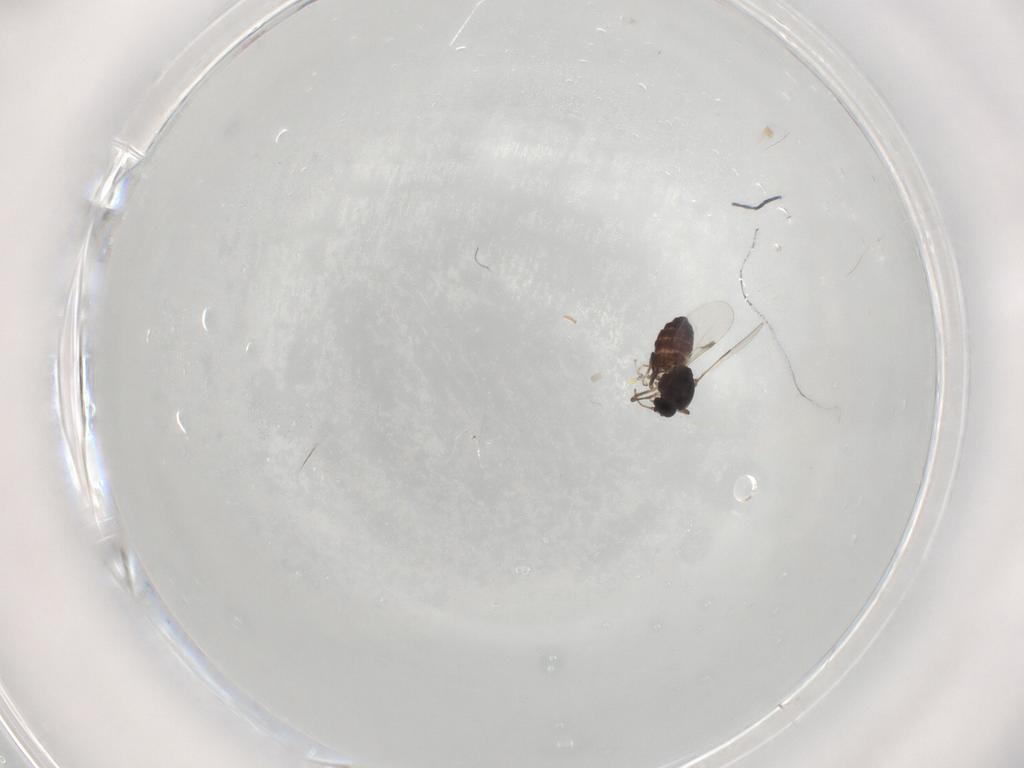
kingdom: Animalia
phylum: Arthropoda
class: Insecta
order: Diptera
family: Ceratopogonidae
